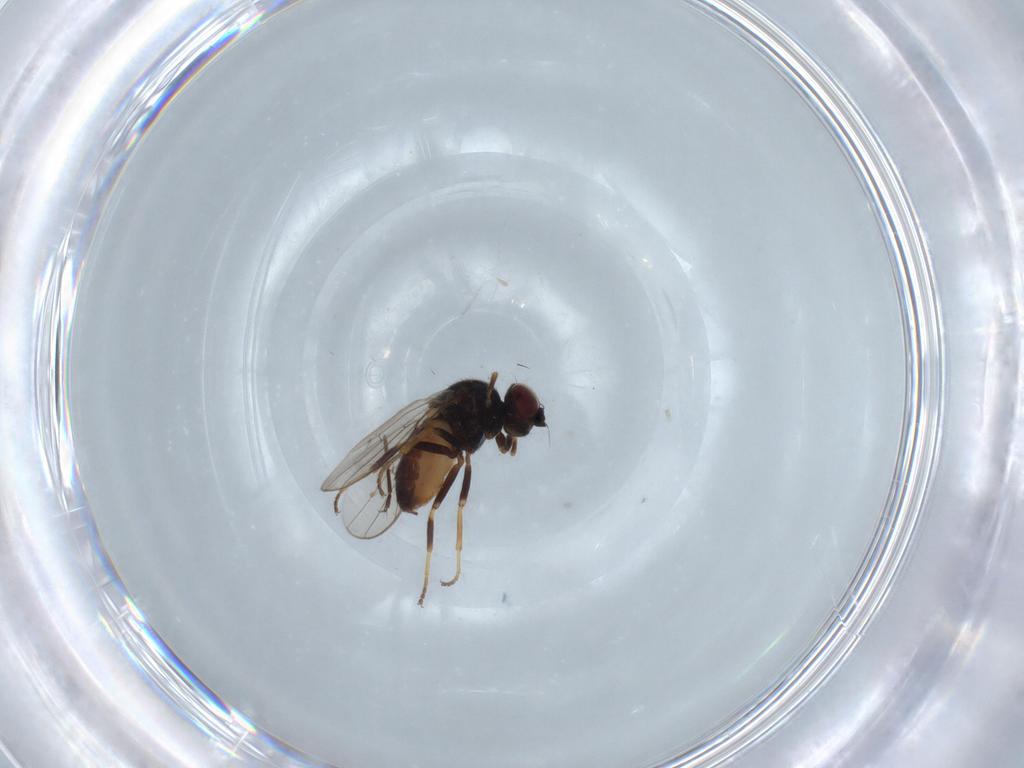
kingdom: Animalia
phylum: Arthropoda
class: Insecta
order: Diptera
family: Chloropidae
